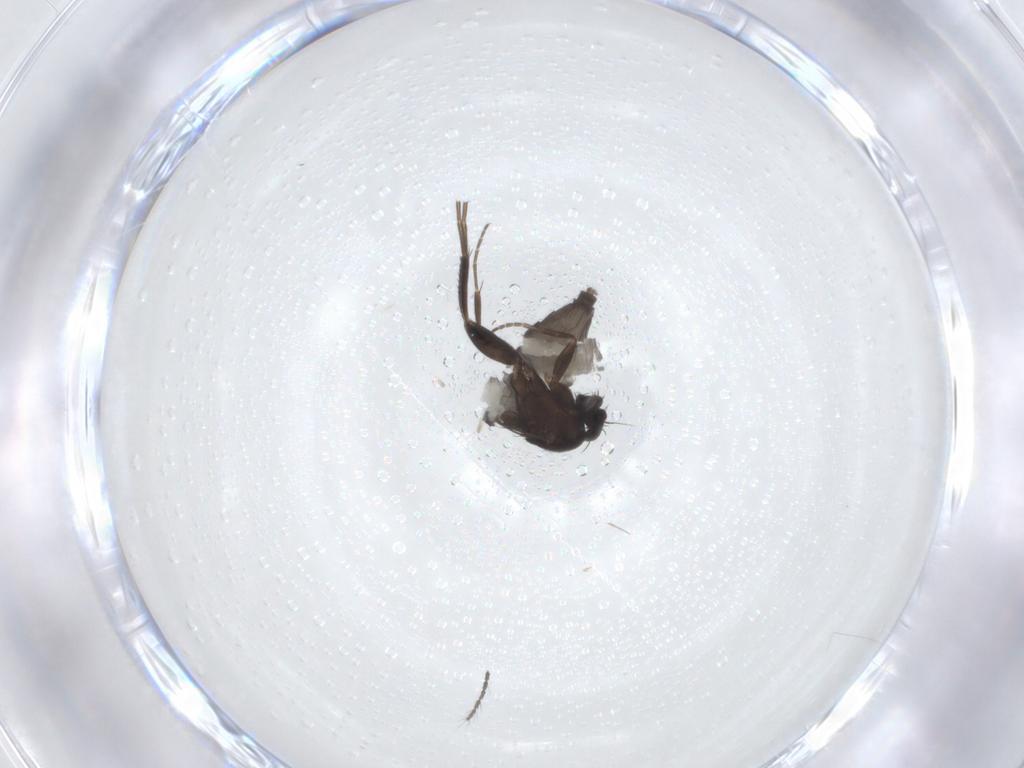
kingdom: Animalia
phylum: Arthropoda
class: Insecta
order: Diptera
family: Phoridae
